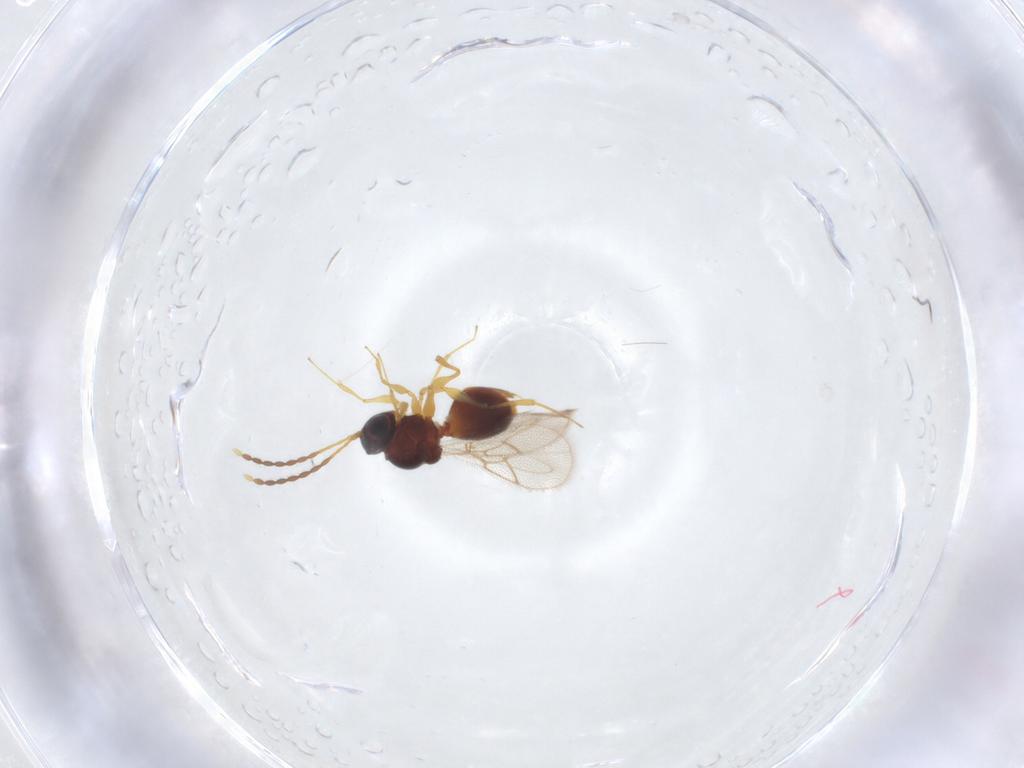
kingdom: Animalia
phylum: Arthropoda
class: Insecta
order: Hymenoptera
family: Figitidae
